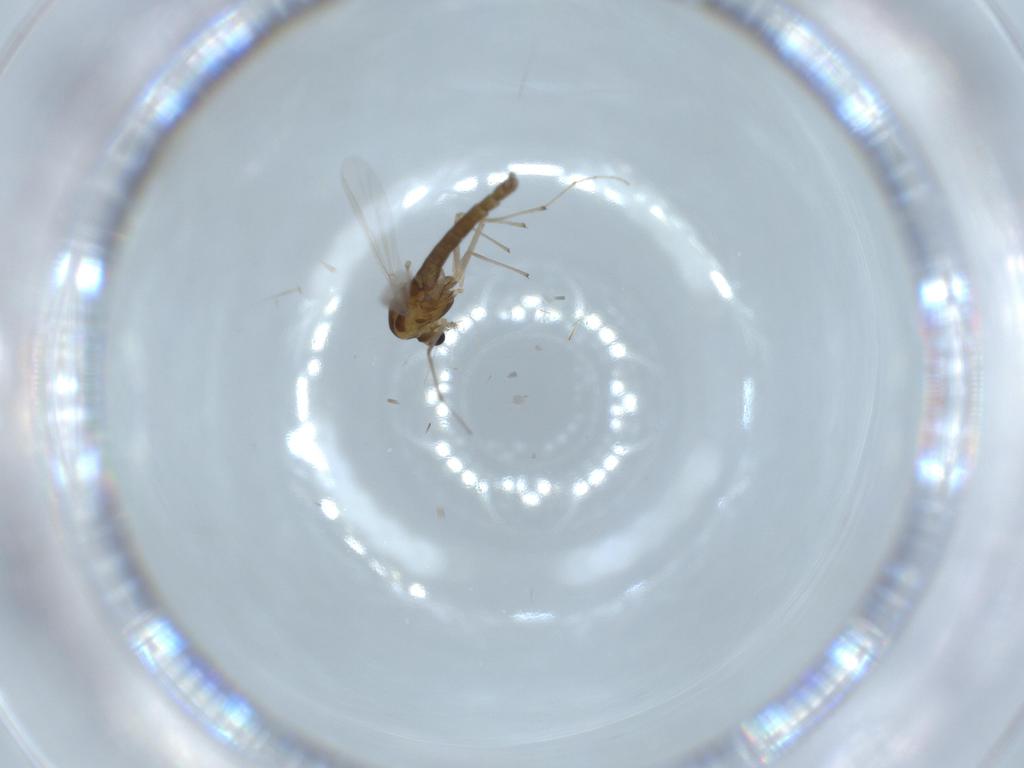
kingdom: Animalia
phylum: Arthropoda
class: Insecta
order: Diptera
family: Chironomidae
